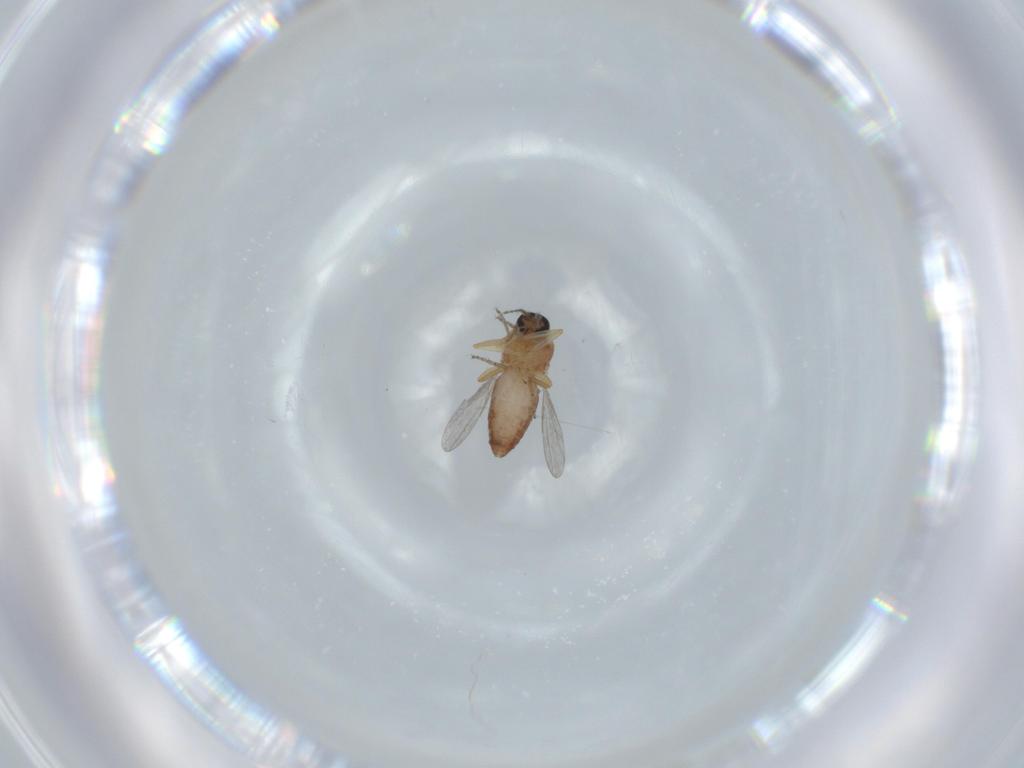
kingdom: Animalia
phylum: Arthropoda
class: Insecta
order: Diptera
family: Ceratopogonidae
